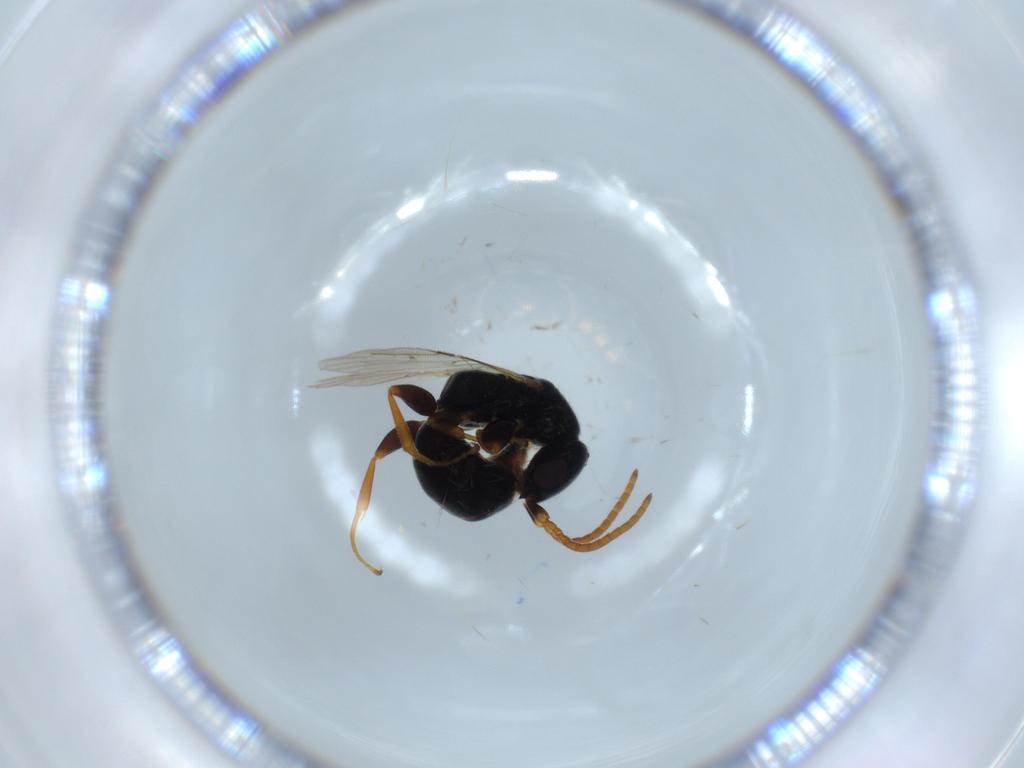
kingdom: Animalia
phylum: Arthropoda
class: Insecta
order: Hymenoptera
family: Bethylidae
